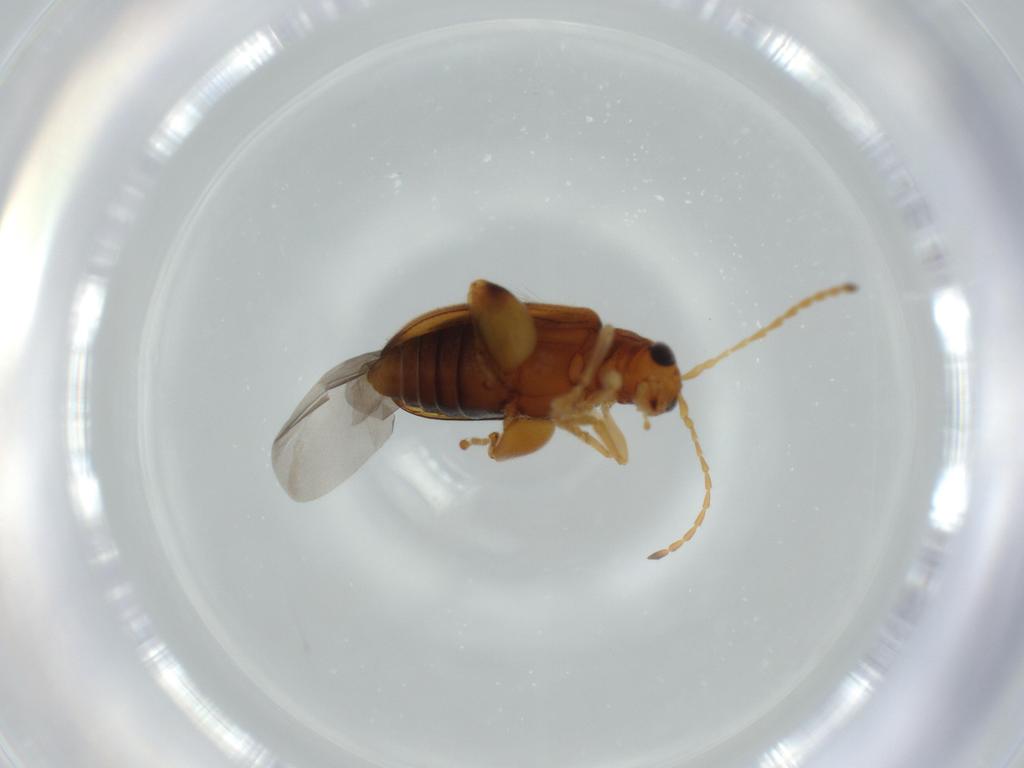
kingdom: Animalia
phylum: Arthropoda
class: Insecta
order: Coleoptera
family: Chrysomelidae
